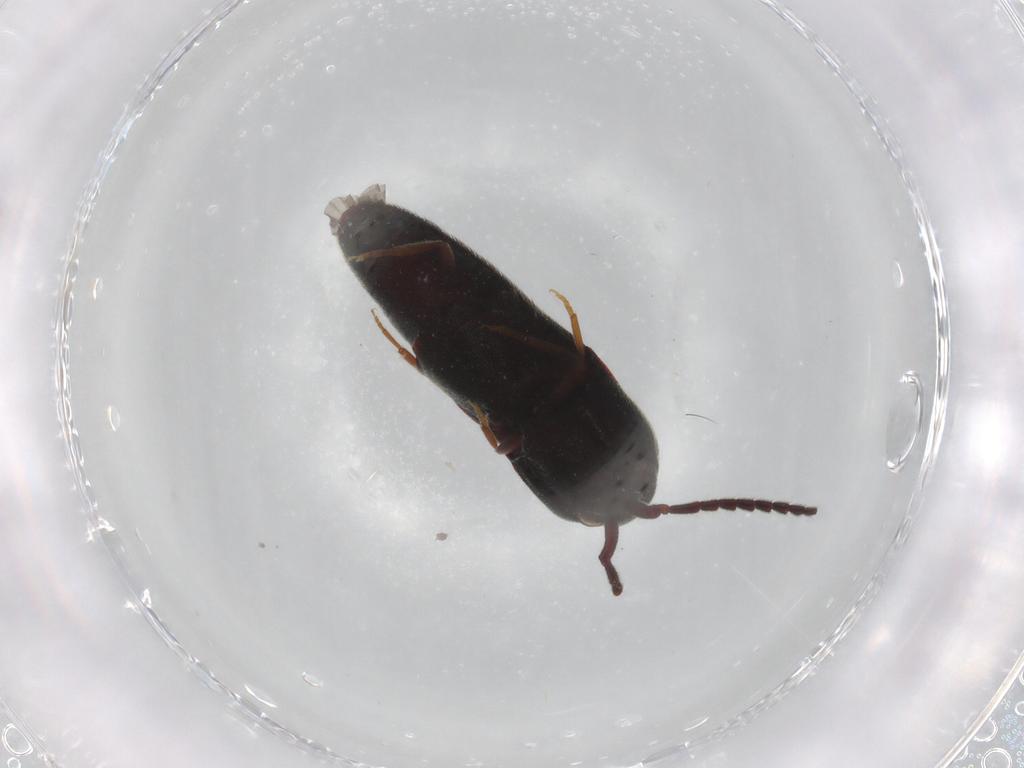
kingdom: Animalia
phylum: Arthropoda
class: Insecta
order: Coleoptera
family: Eucnemidae
